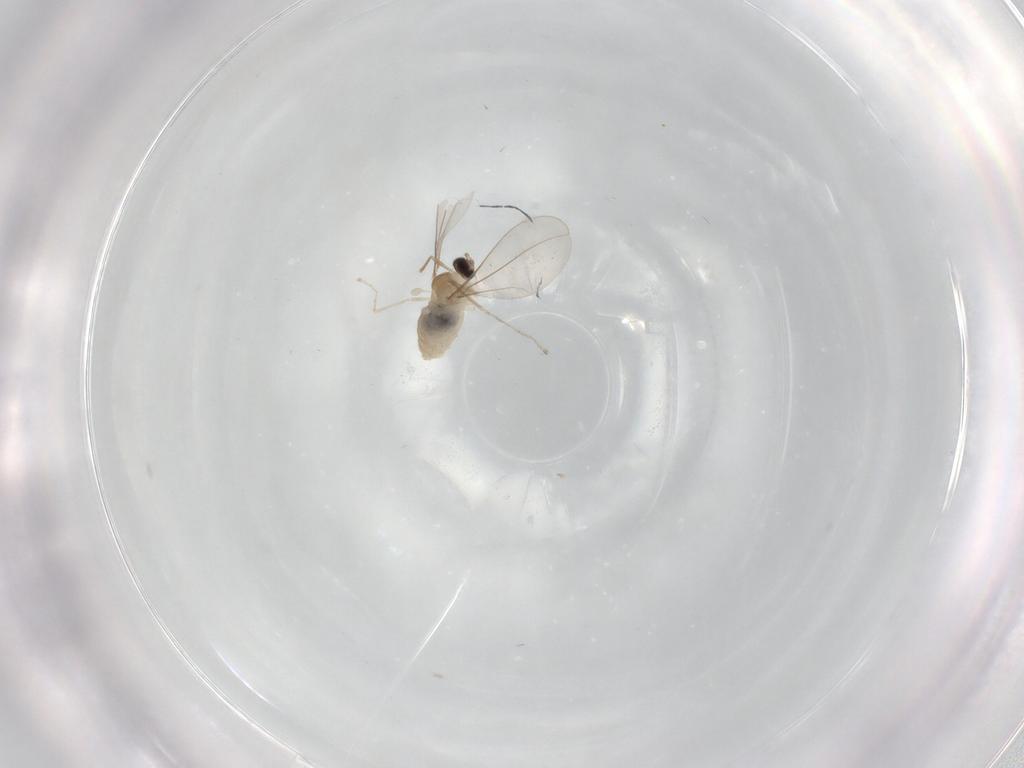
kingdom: Animalia
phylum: Arthropoda
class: Insecta
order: Diptera
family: Cecidomyiidae
